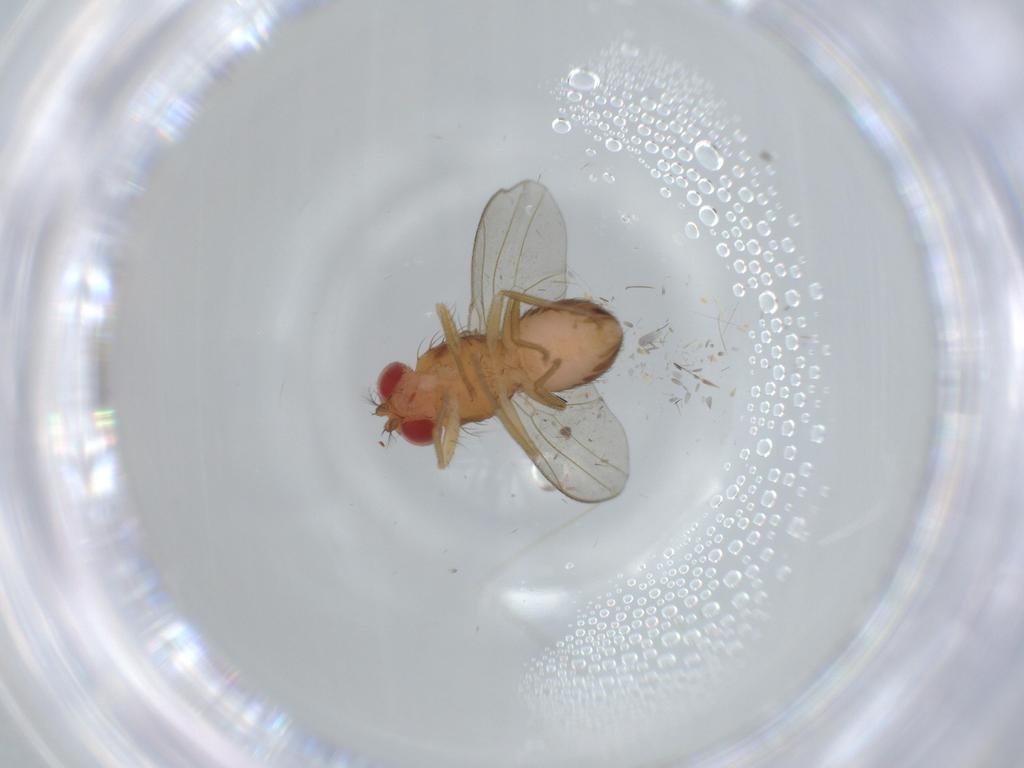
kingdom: Animalia
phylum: Arthropoda
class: Insecta
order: Diptera
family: Drosophilidae
